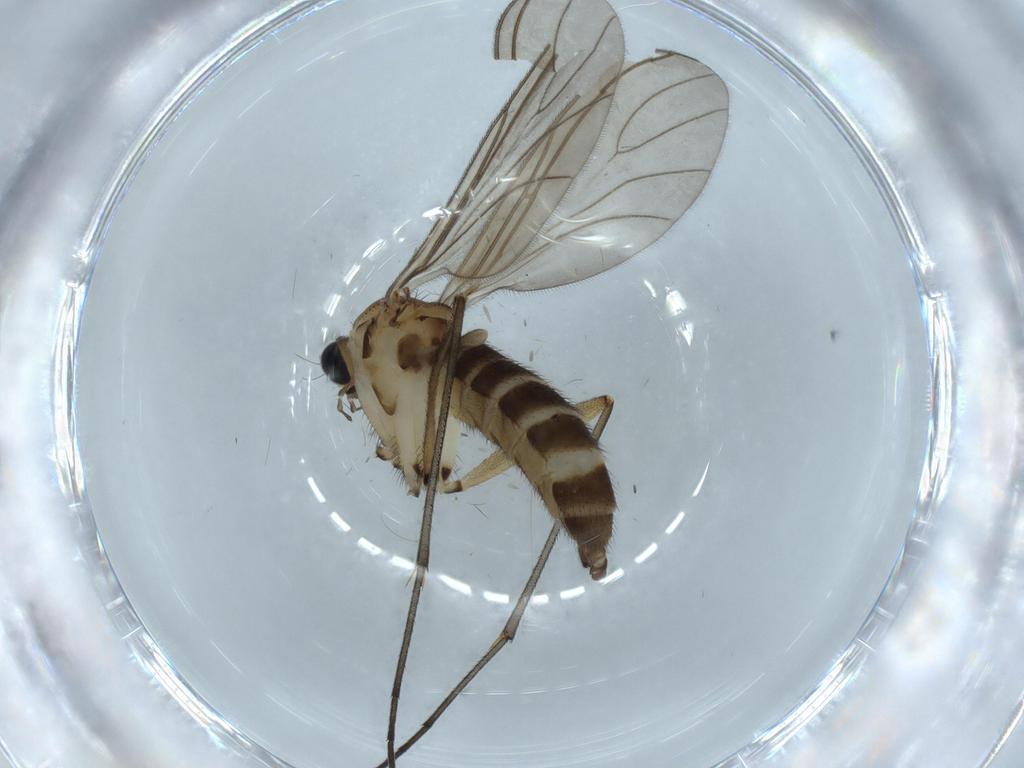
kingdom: Animalia
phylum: Arthropoda
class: Insecta
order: Diptera
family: Sciaridae
